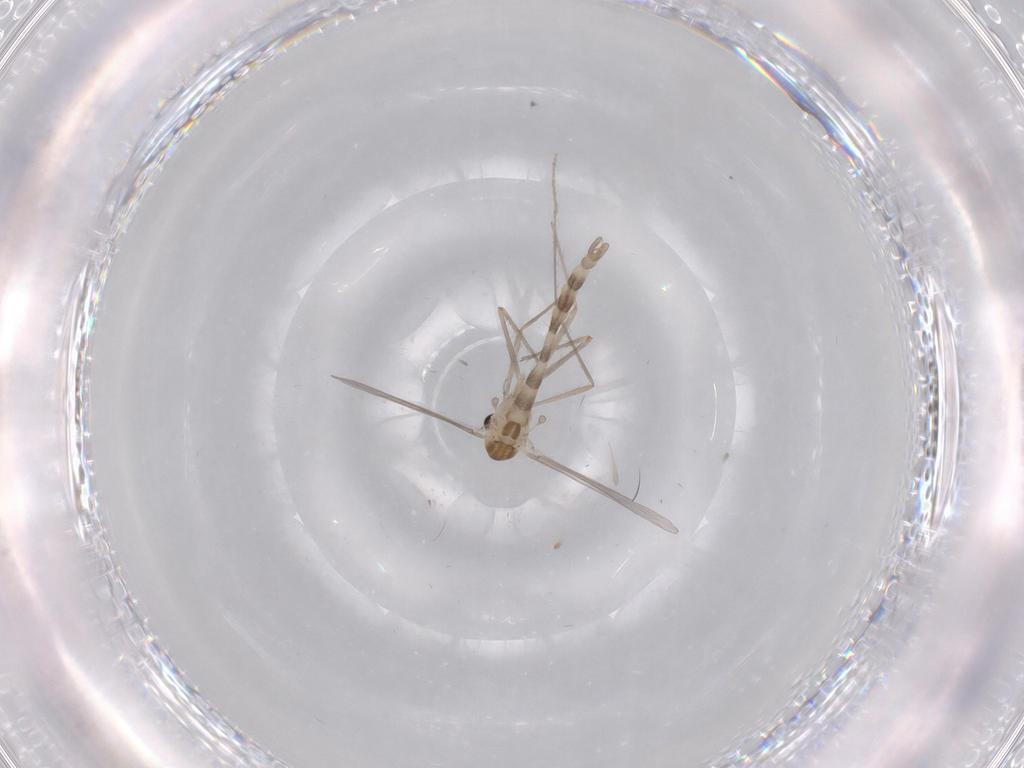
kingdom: Animalia
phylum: Arthropoda
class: Insecta
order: Diptera
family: Chironomidae
